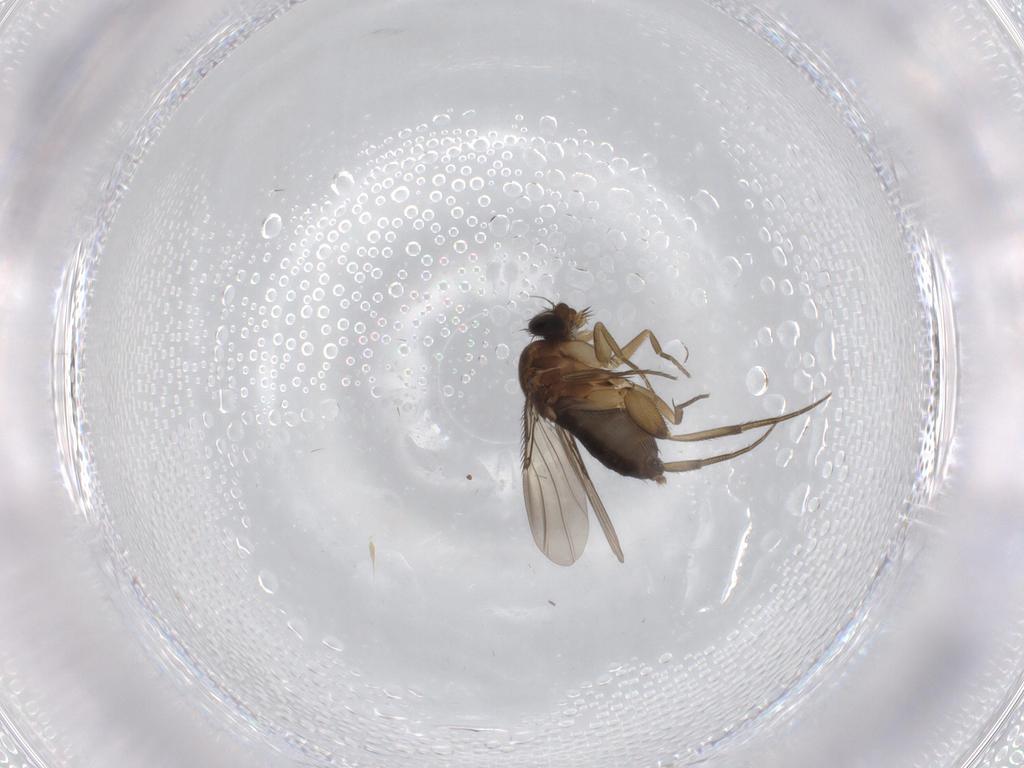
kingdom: Animalia
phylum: Arthropoda
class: Insecta
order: Diptera
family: Phoridae
